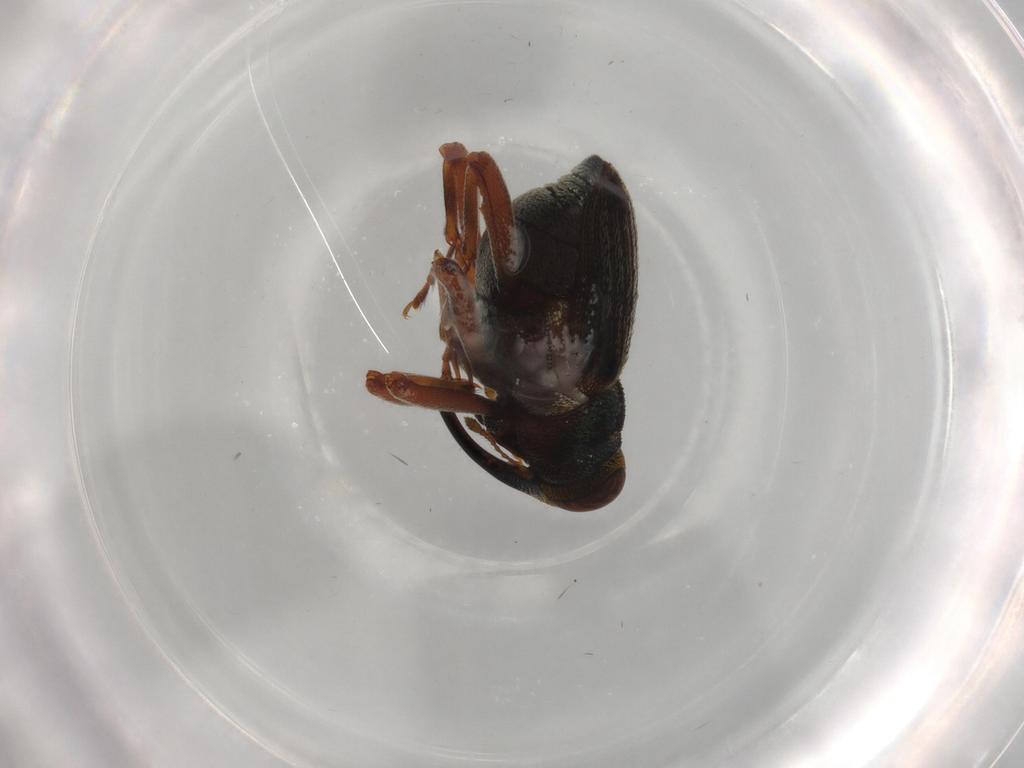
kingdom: Animalia
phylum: Arthropoda
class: Insecta
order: Coleoptera
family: Curculionidae
